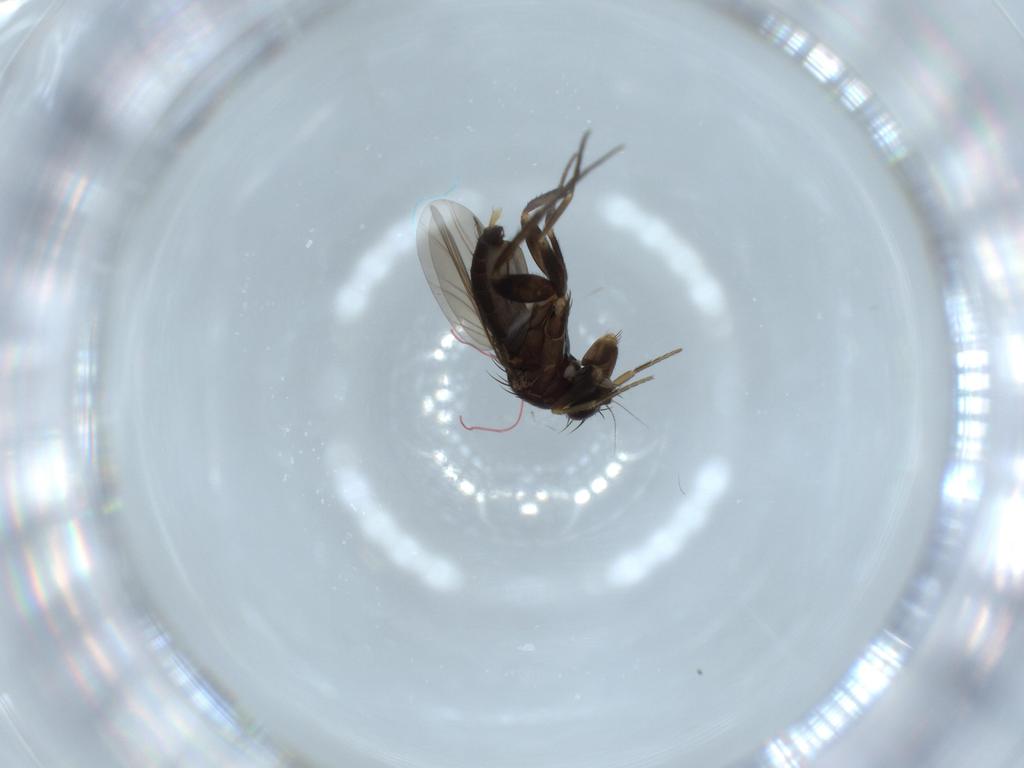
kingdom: Animalia
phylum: Arthropoda
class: Insecta
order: Diptera
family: Phoridae
